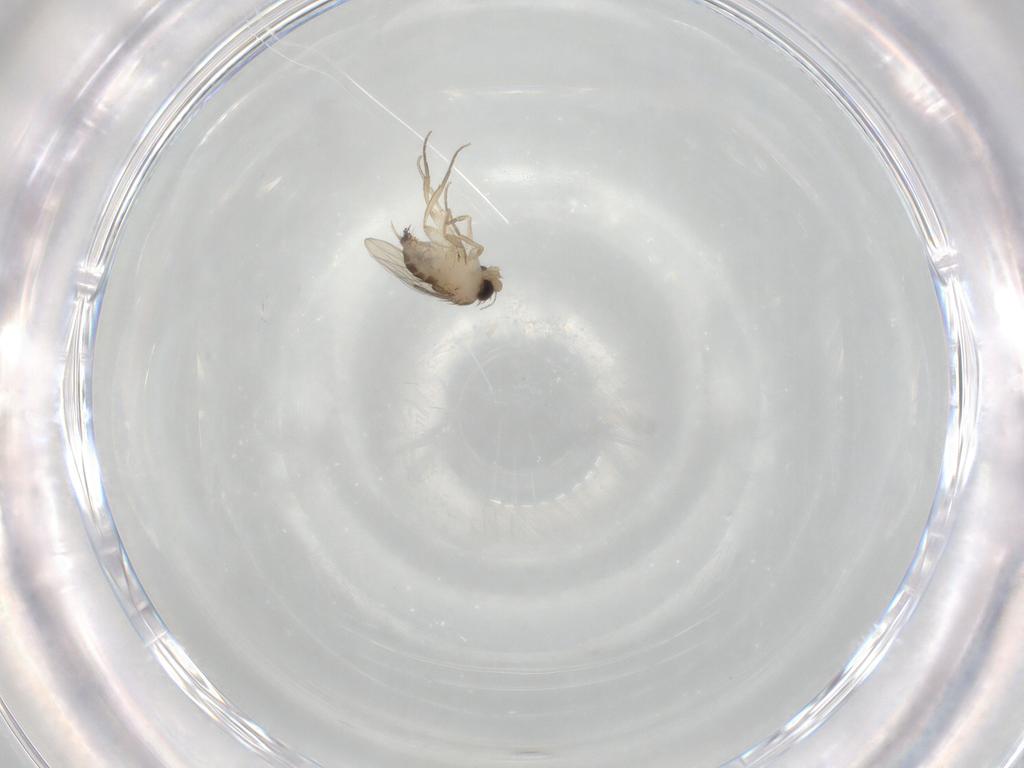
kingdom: Animalia
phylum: Arthropoda
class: Insecta
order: Diptera
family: Phoridae
